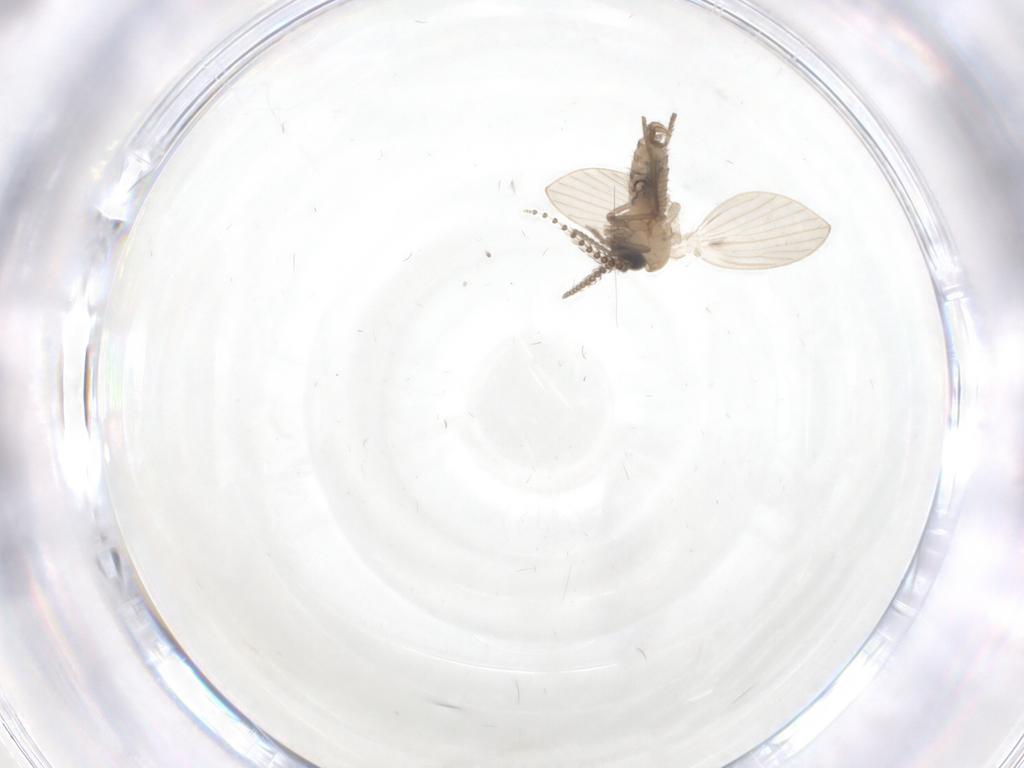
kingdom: Animalia
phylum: Arthropoda
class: Insecta
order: Diptera
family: Psychodidae
